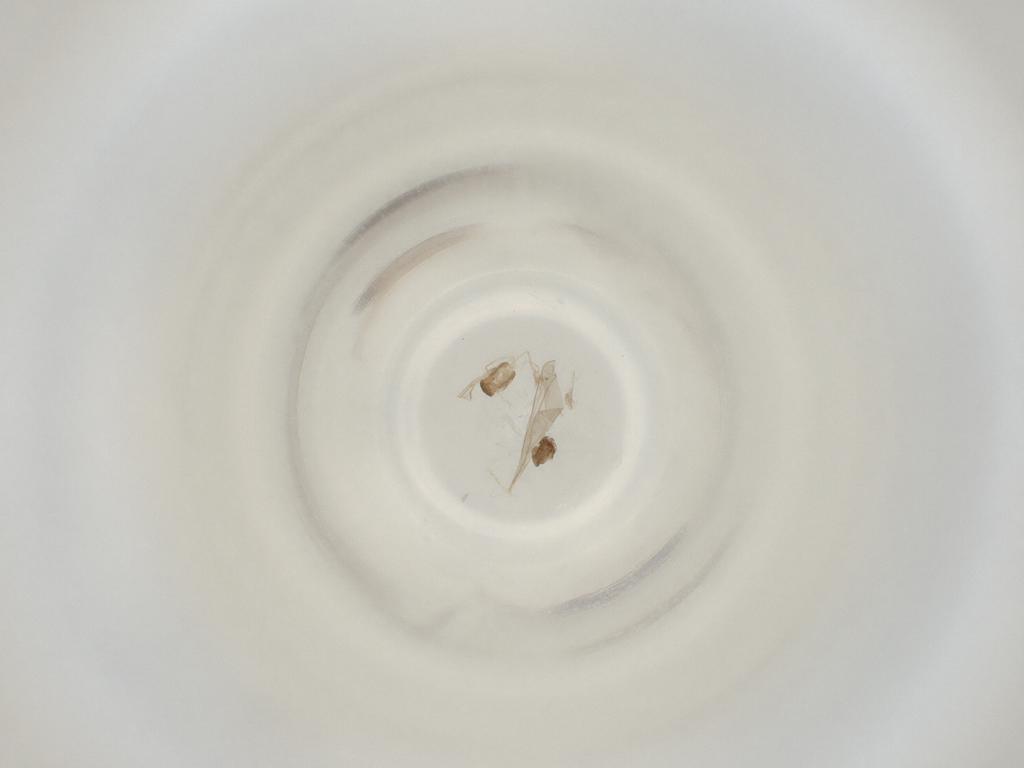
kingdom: Animalia
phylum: Arthropoda
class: Insecta
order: Diptera
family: Cecidomyiidae
